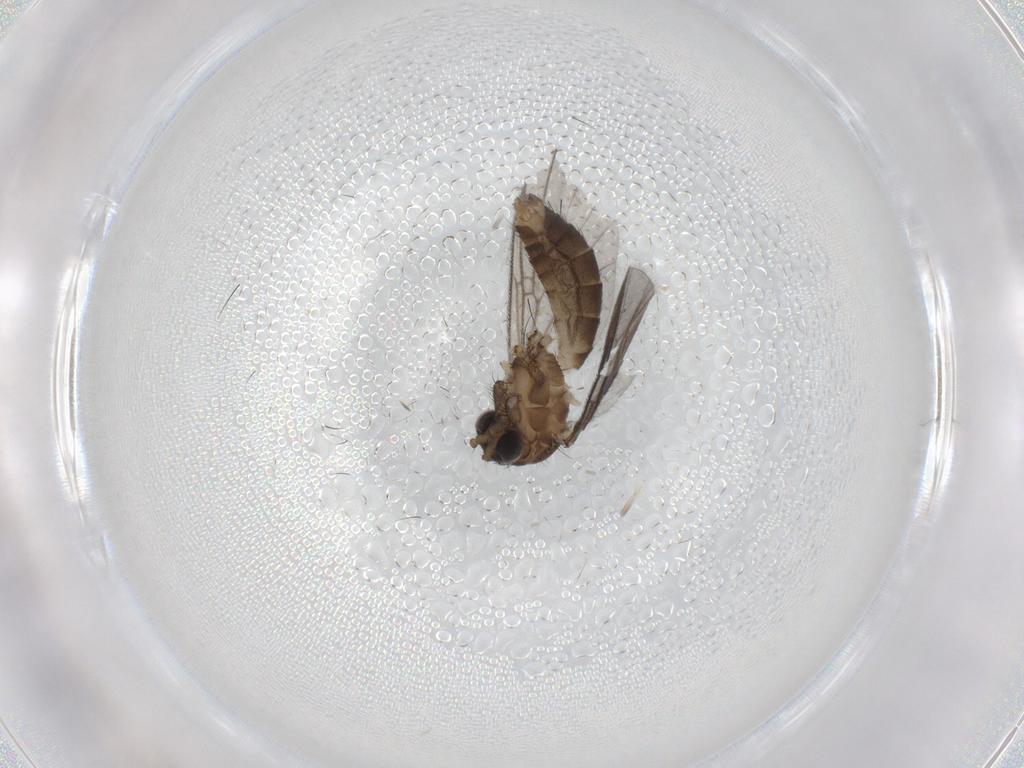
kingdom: Animalia
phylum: Arthropoda
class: Insecta
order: Diptera
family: Mycetophilidae
